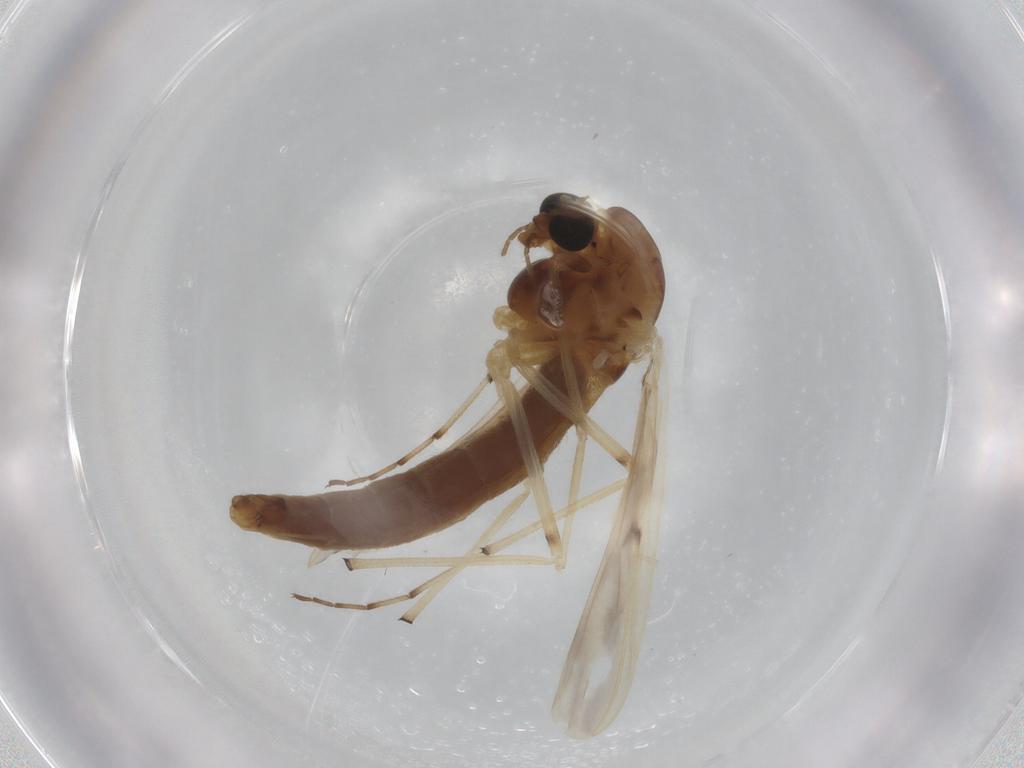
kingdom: Animalia
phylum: Arthropoda
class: Insecta
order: Diptera
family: Chironomidae
